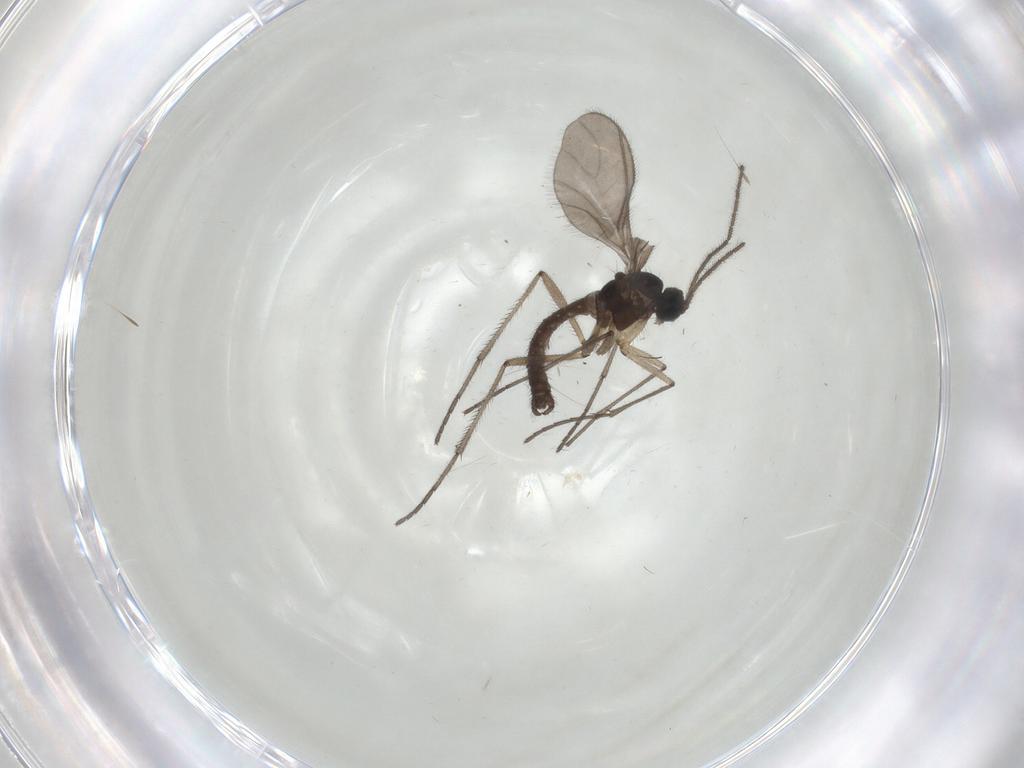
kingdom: Animalia
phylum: Arthropoda
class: Insecta
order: Diptera
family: Sciaridae
